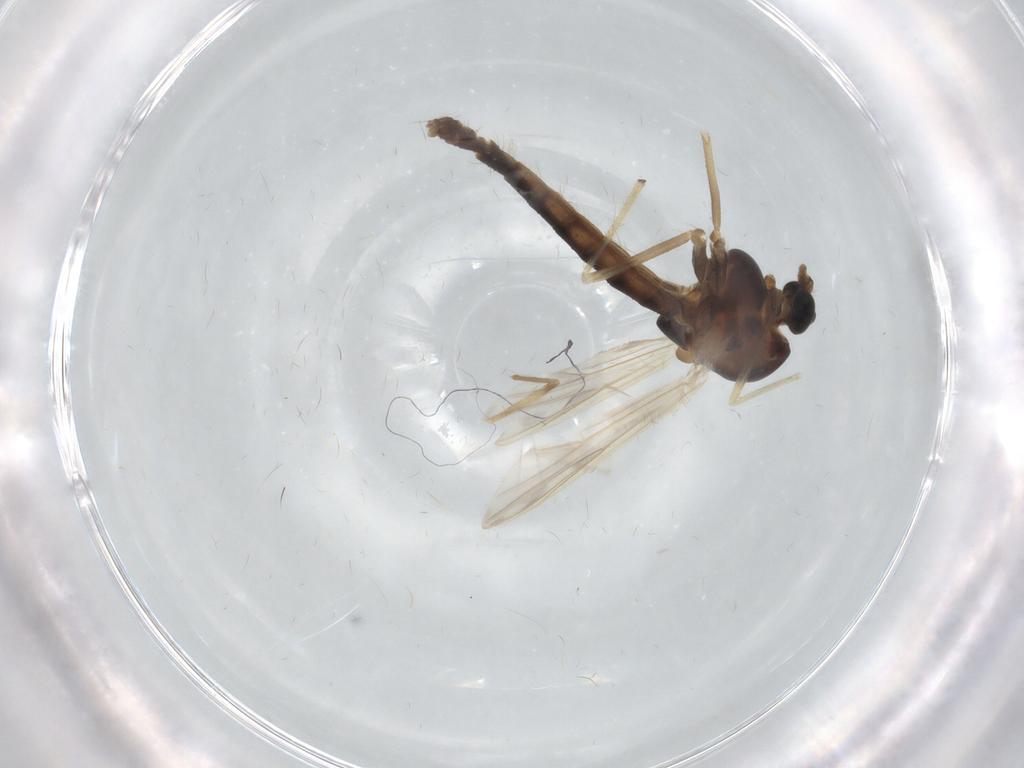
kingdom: Animalia
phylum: Arthropoda
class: Insecta
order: Diptera
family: Chironomidae
